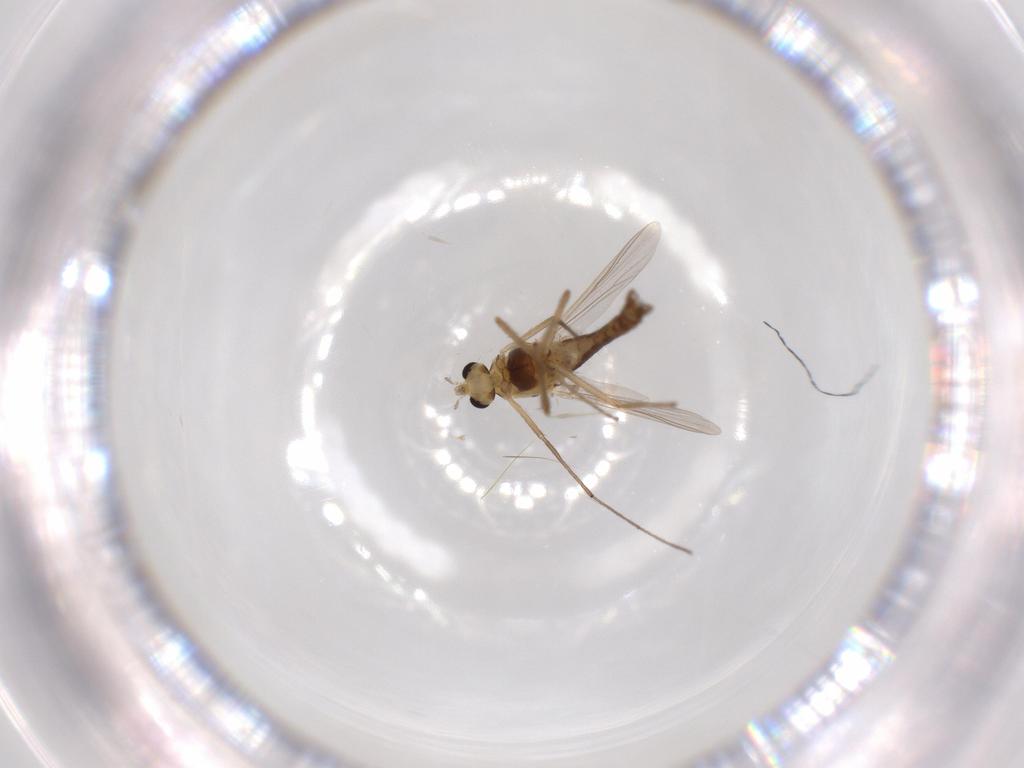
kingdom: Animalia
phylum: Arthropoda
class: Insecta
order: Diptera
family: Chironomidae
